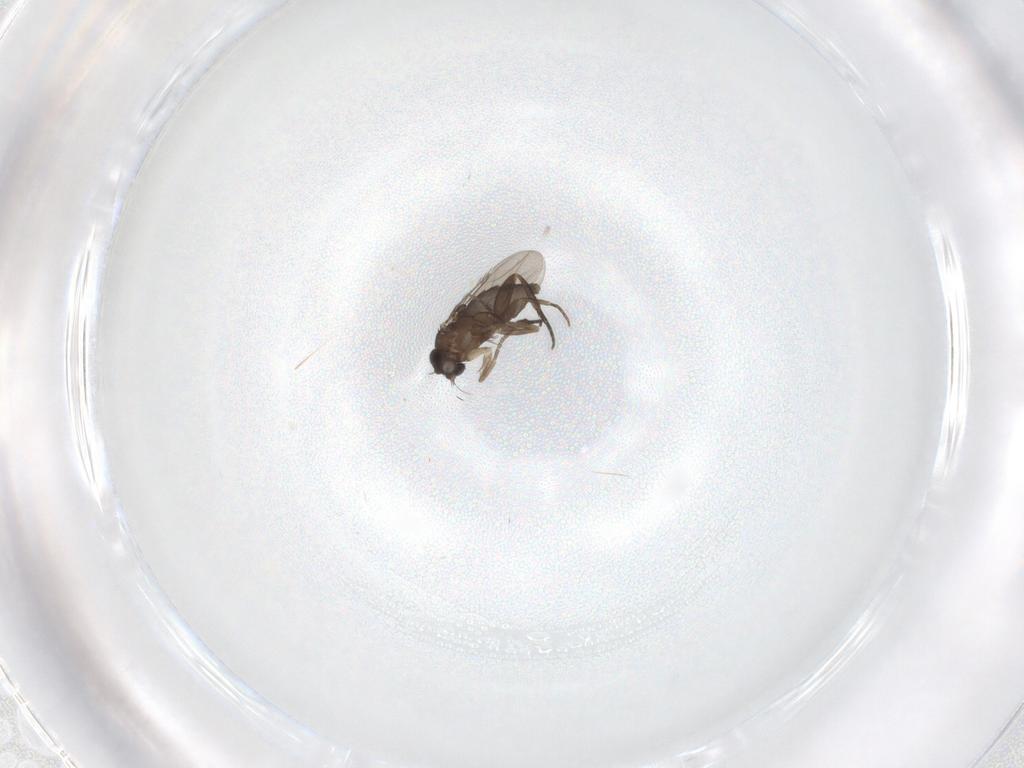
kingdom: Animalia
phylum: Arthropoda
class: Insecta
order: Diptera
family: Phoridae
